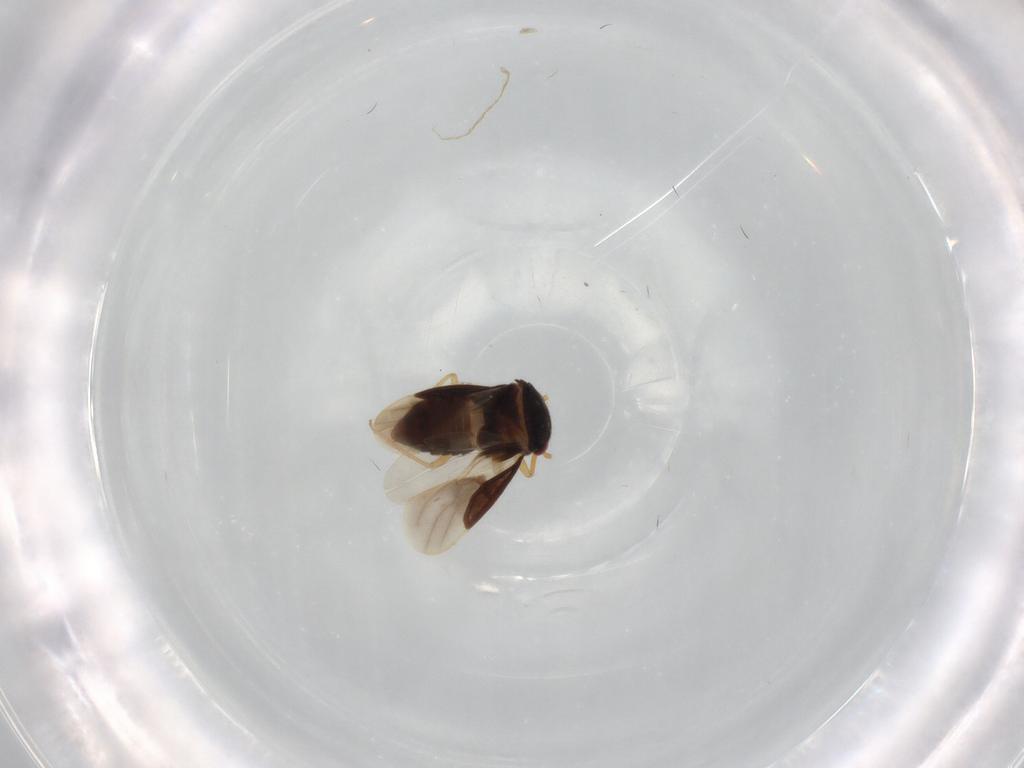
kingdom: Animalia
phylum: Arthropoda
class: Insecta
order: Hemiptera
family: Schizopteridae
